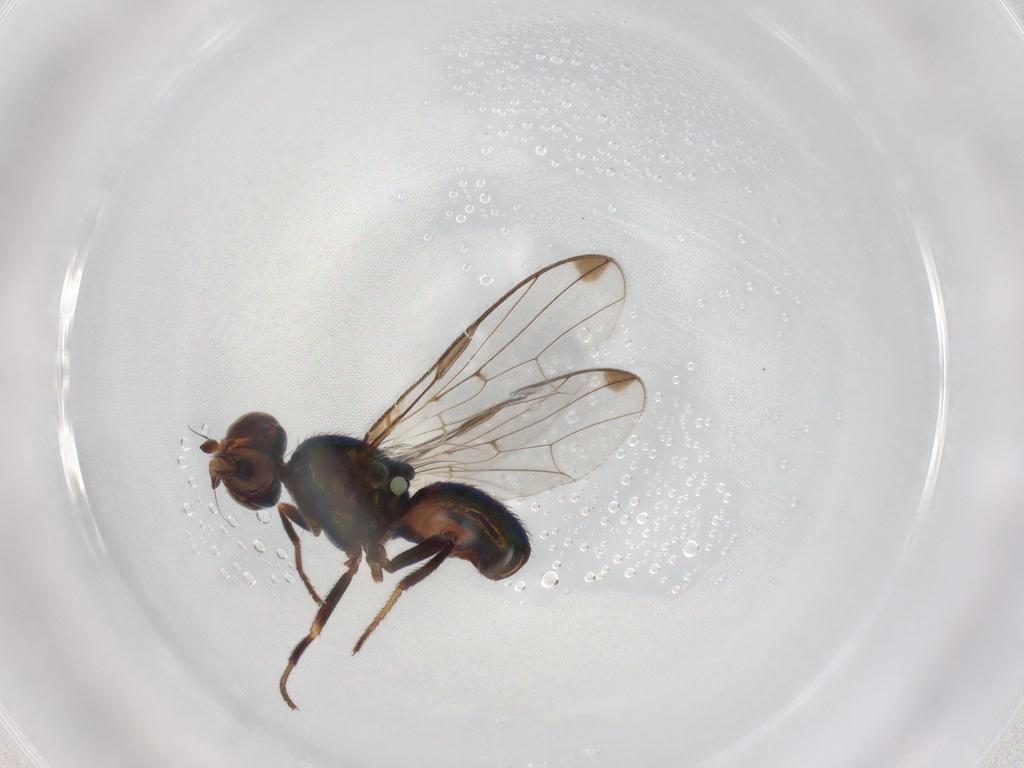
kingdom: Animalia
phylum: Arthropoda
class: Insecta
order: Diptera
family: Platystomatidae
